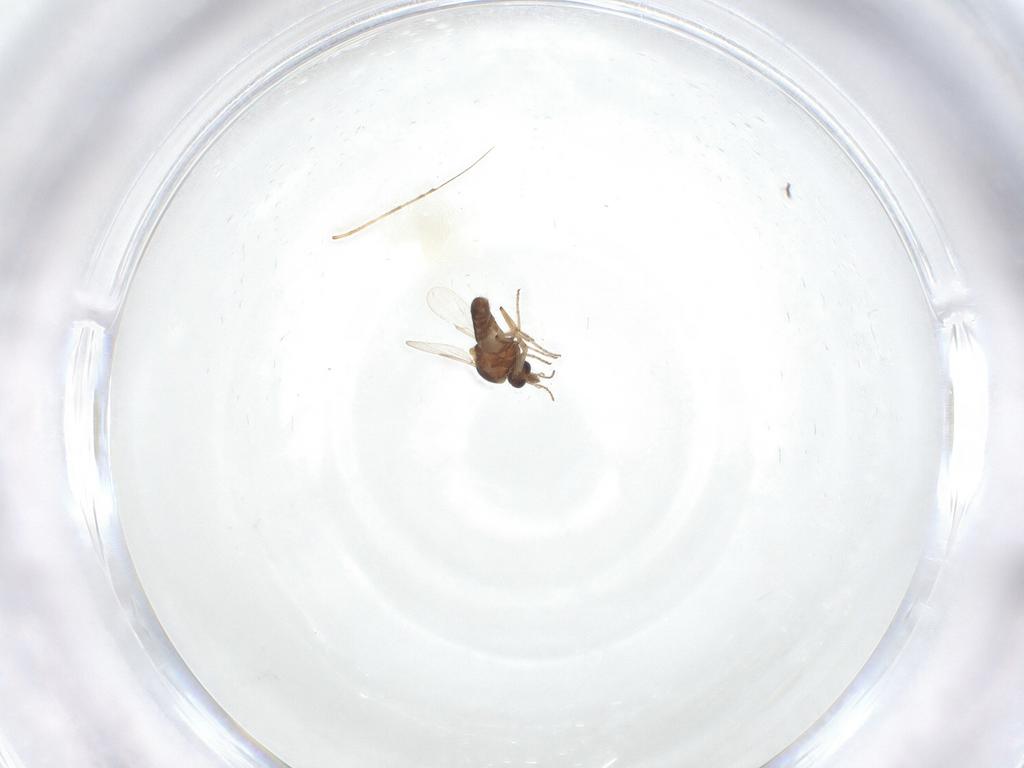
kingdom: Animalia
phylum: Arthropoda
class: Insecta
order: Diptera
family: Ceratopogonidae
